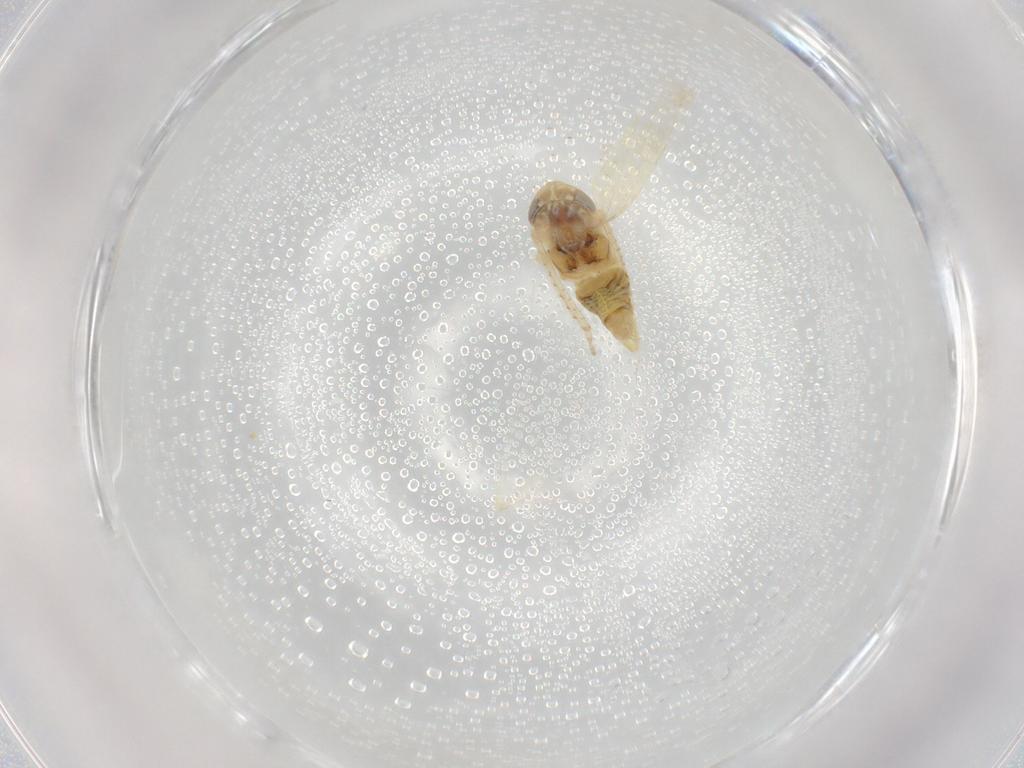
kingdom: Animalia
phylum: Arthropoda
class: Insecta
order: Hemiptera
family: Cicadellidae
